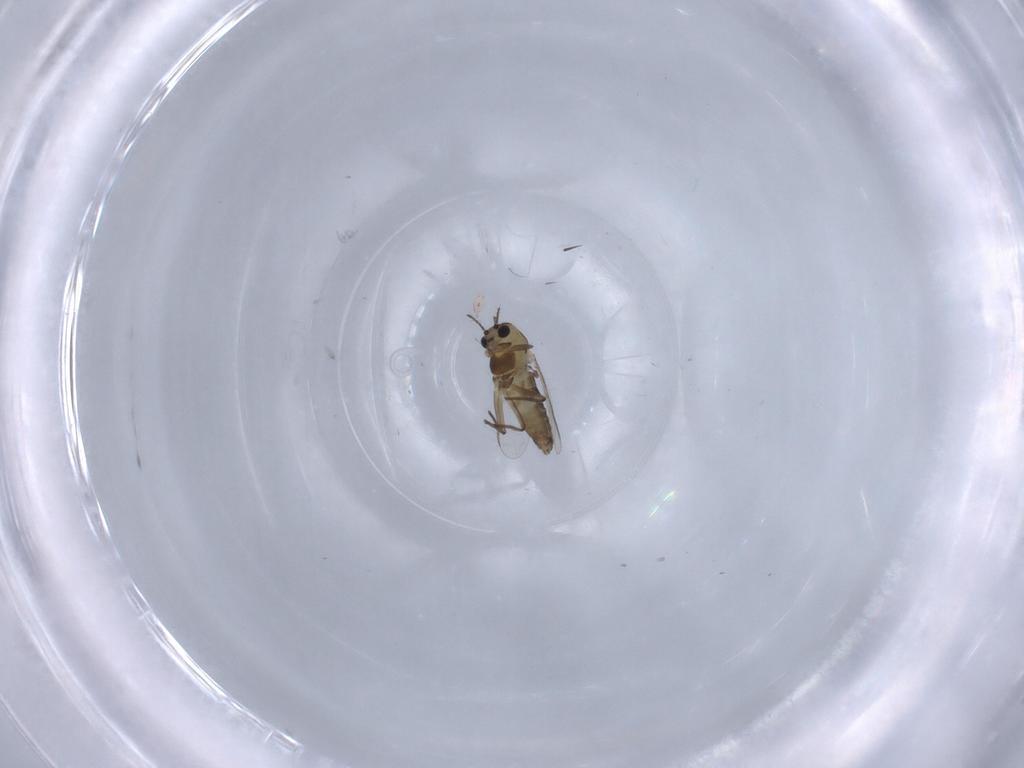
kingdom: Animalia
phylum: Arthropoda
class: Insecta
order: Diptera
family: Chironomidae
